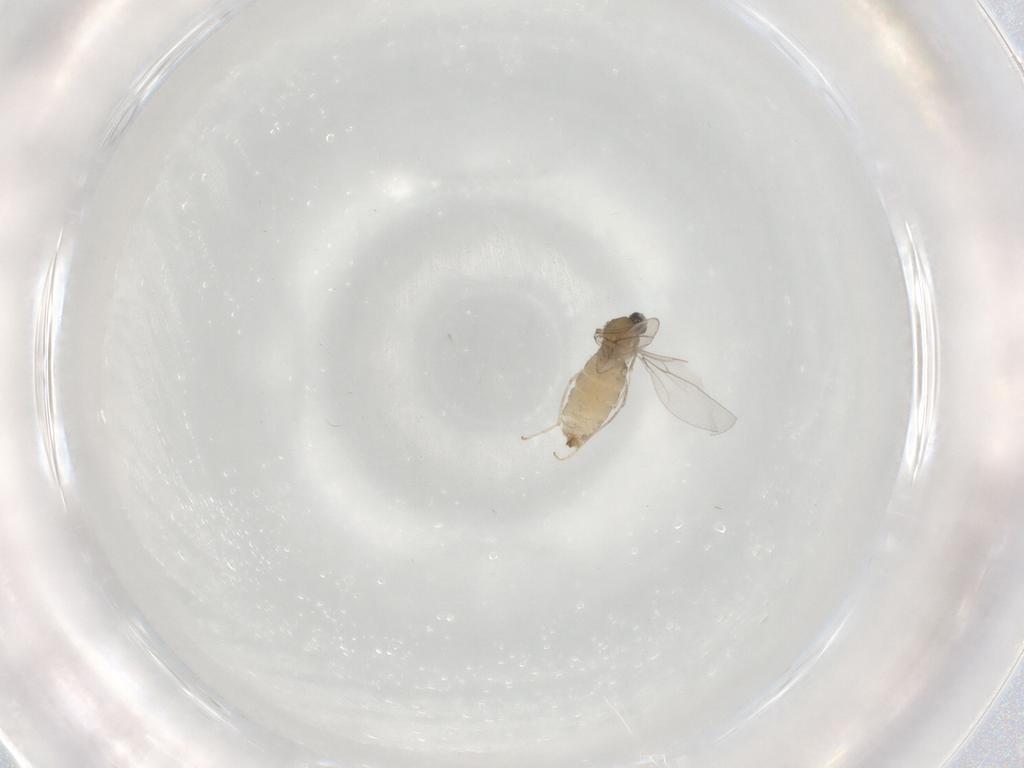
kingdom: Animalia
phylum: Arthropoda
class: Insecta
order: Diptera
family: Cecidomyiidae
